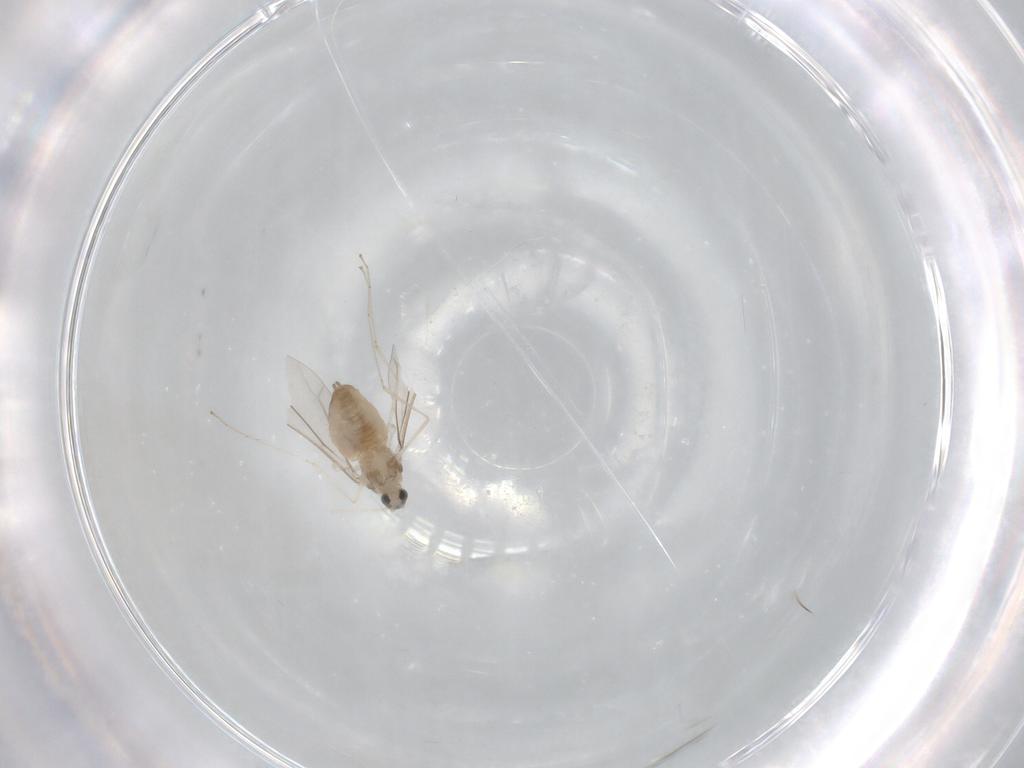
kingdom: Animalia
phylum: Arthropoda
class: Insecta
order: Diptera
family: Cecidomyiidae
